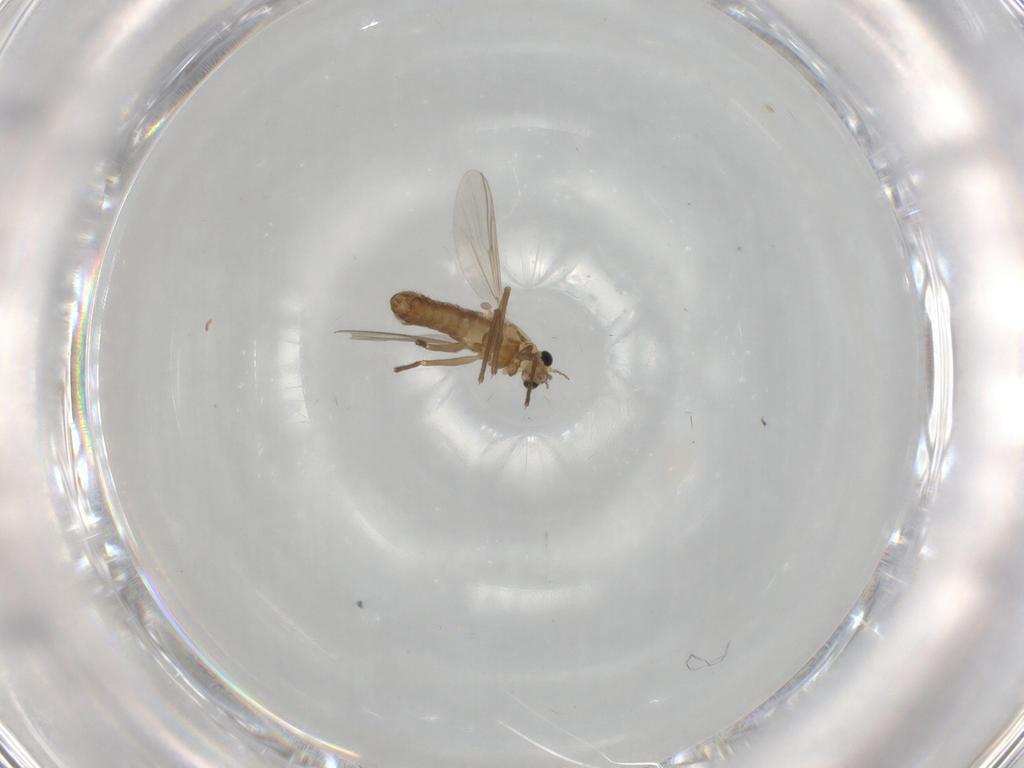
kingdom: Animalia
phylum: Arthropoda
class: Insecta
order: Diptera
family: Chironomidae
